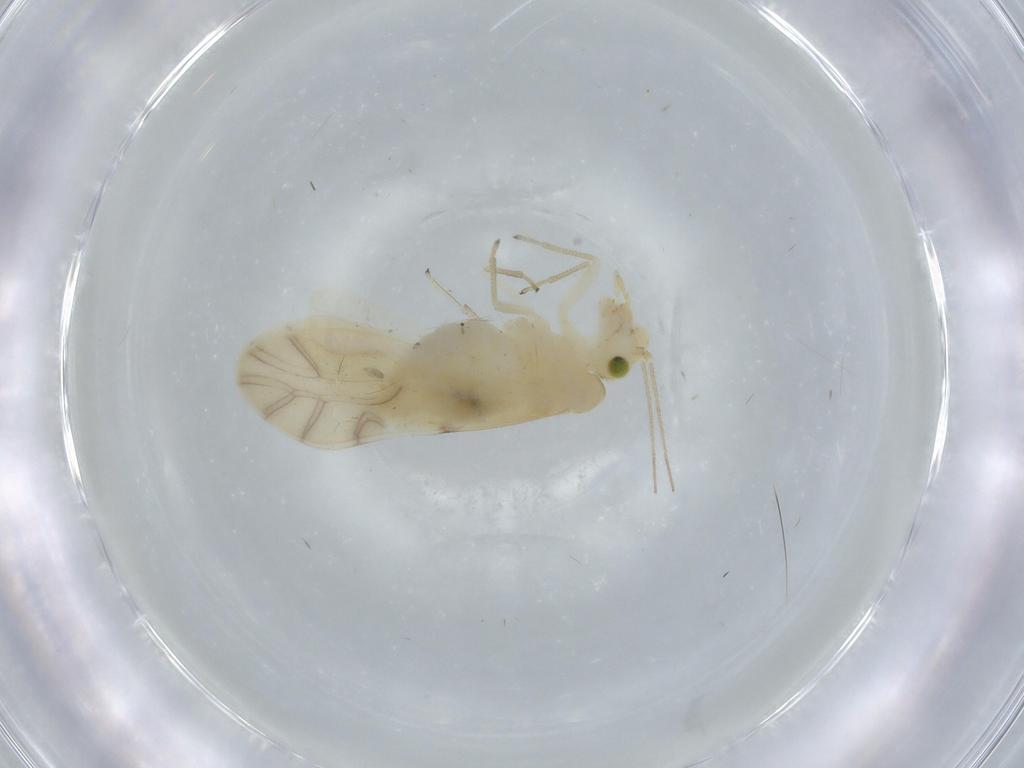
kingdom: Animalia
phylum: Arthropoda
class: Insecta
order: Psocodea
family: Caeciliusidae
